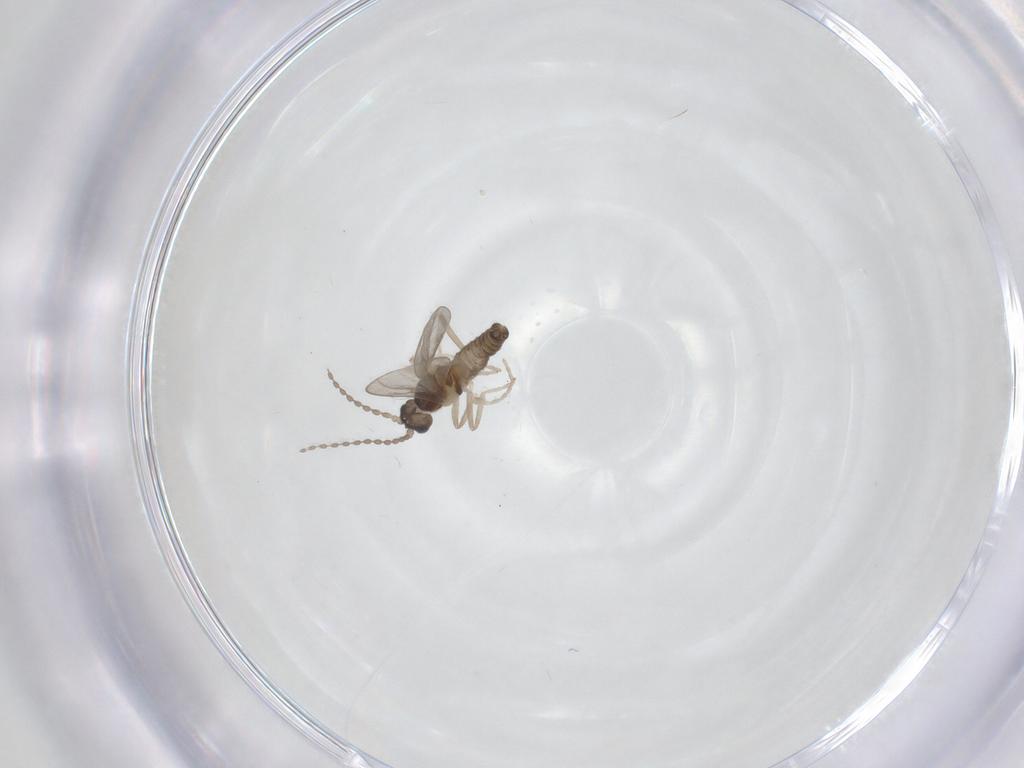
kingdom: Animalia
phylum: Arthropoda
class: Insecta
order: Diptera
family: Cecidomyiidae
